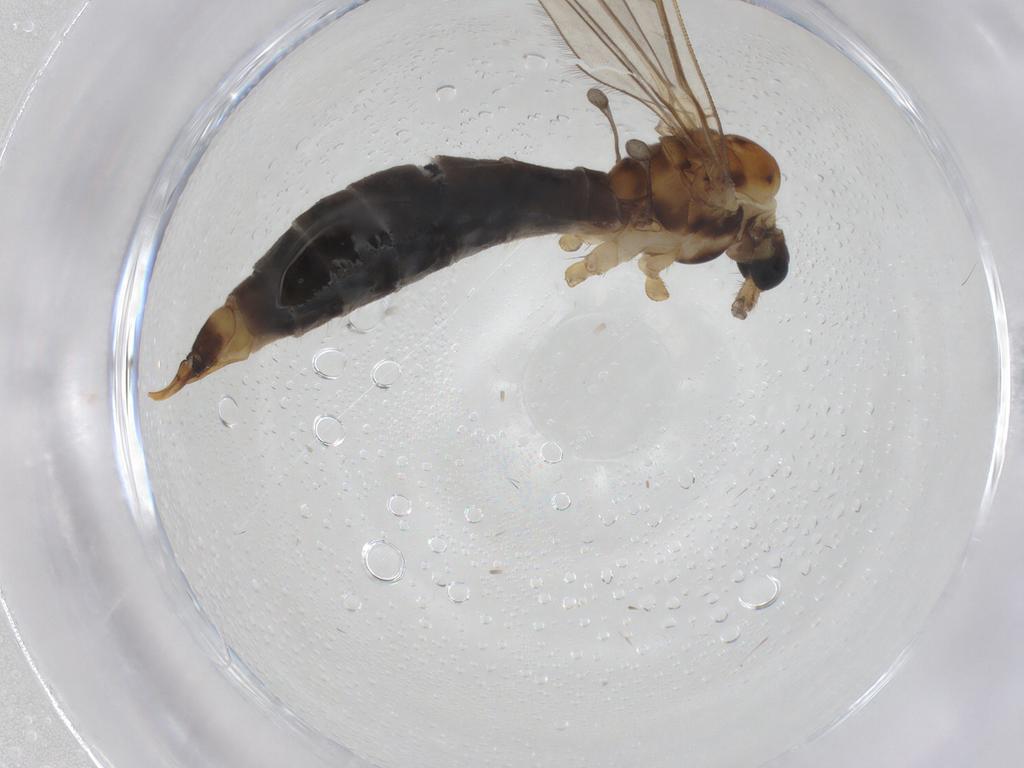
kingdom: Animalia
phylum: Arthropoda
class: Insecta
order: Diptera
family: Limoniidae
